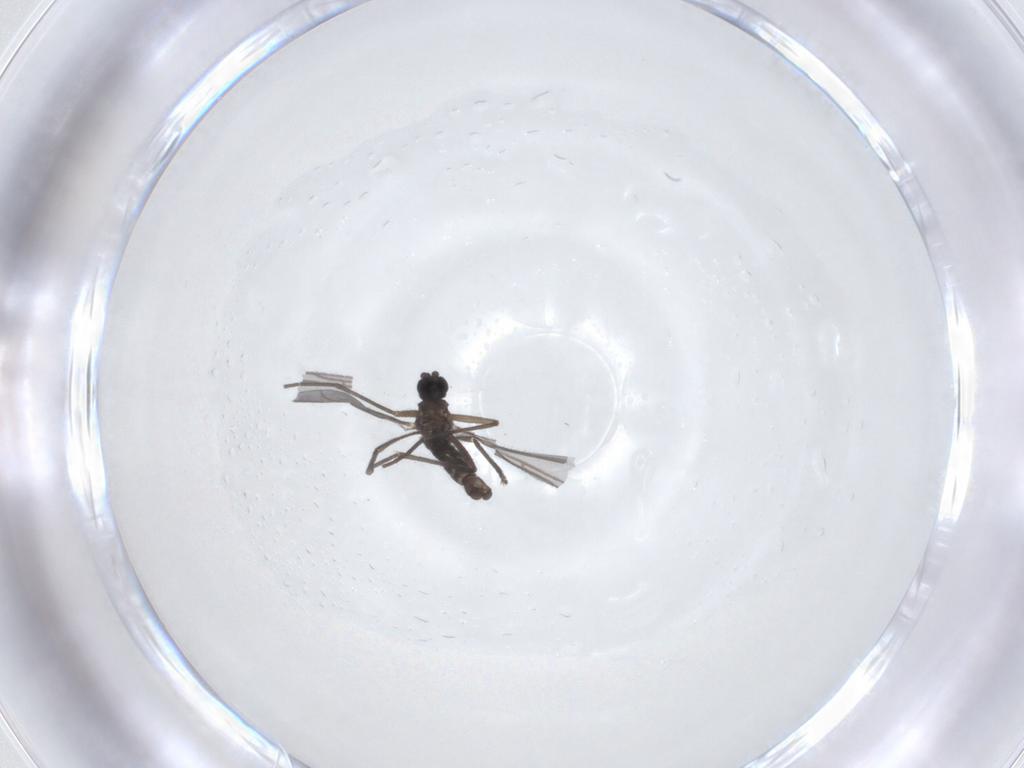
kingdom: Animalia
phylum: Arthropoda
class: Insecta
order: Diptera
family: Sciaridae
